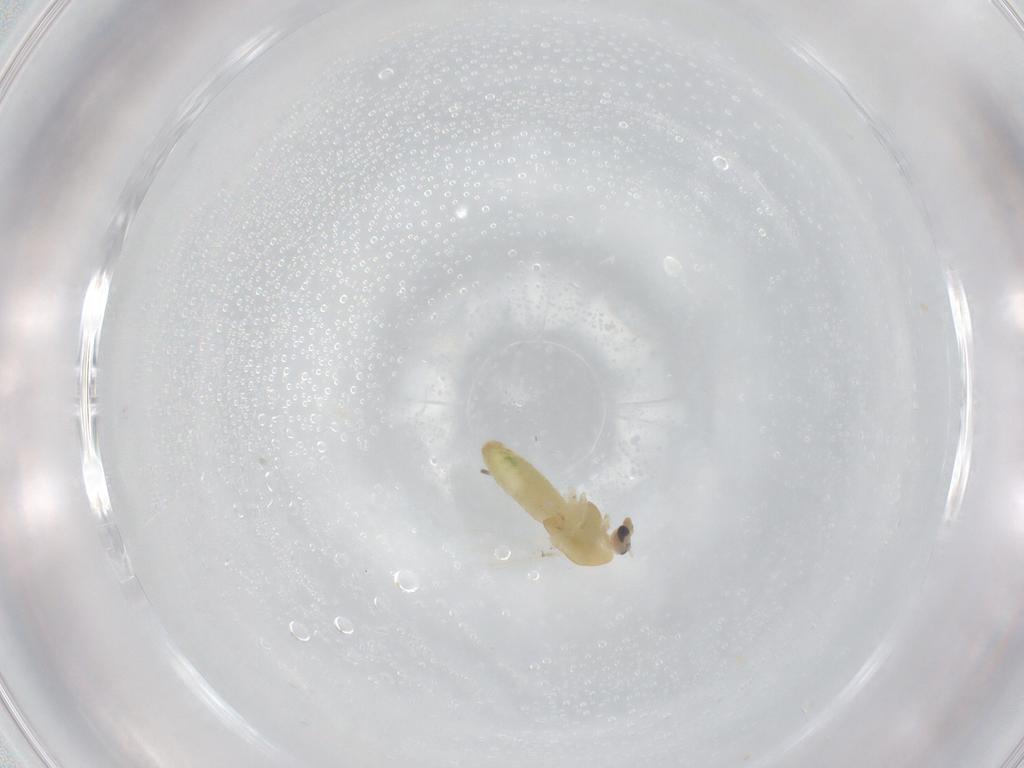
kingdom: Animalia
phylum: Arthropoda
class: Insecta
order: Diptera
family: Chironomidae
